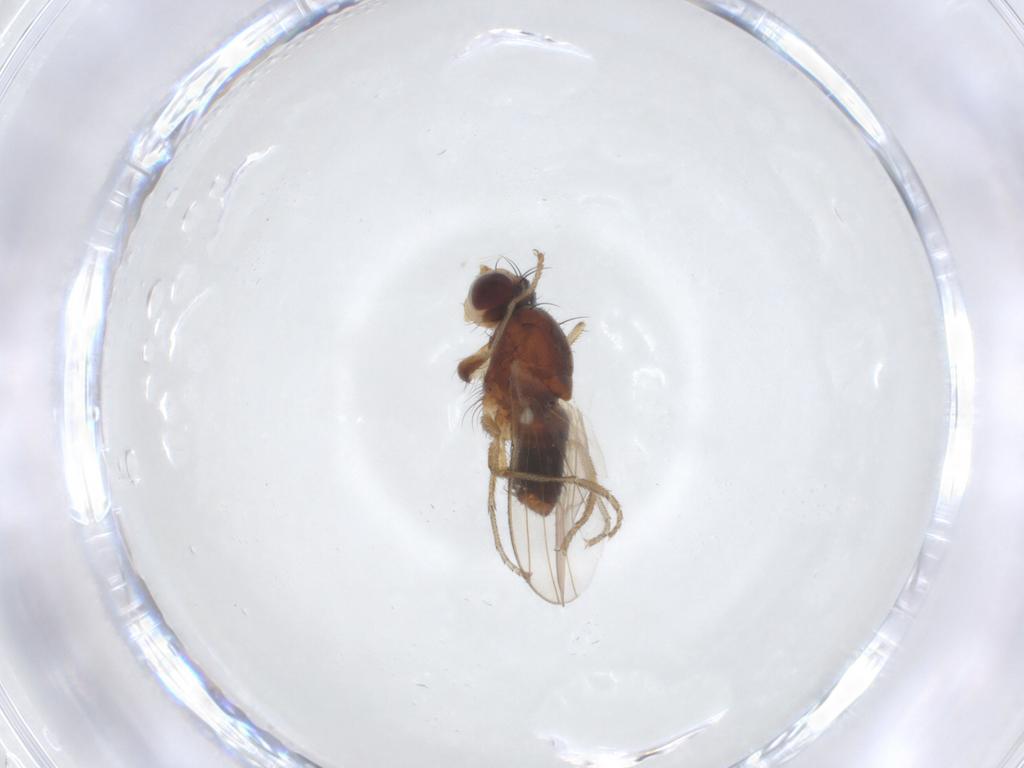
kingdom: Animalia
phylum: Arthropoda
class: Insecta
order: Diptera
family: Heleomyzidae
